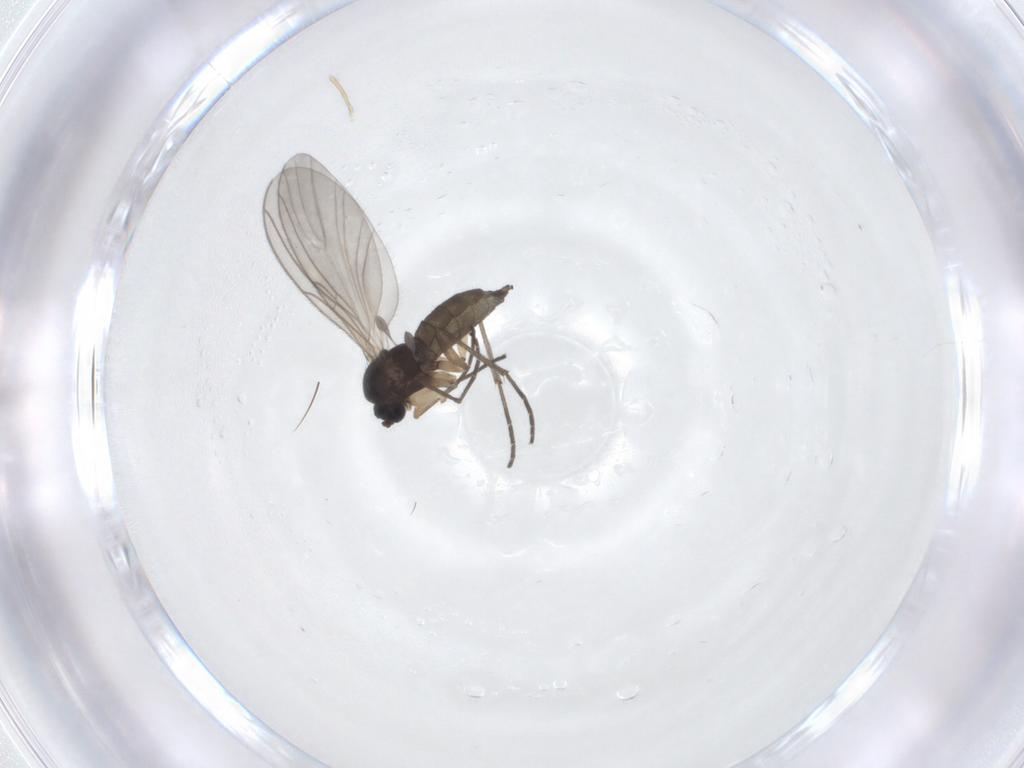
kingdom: Animalia
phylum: Arthropoda
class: Insecta
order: Diptera
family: Sciaridae
